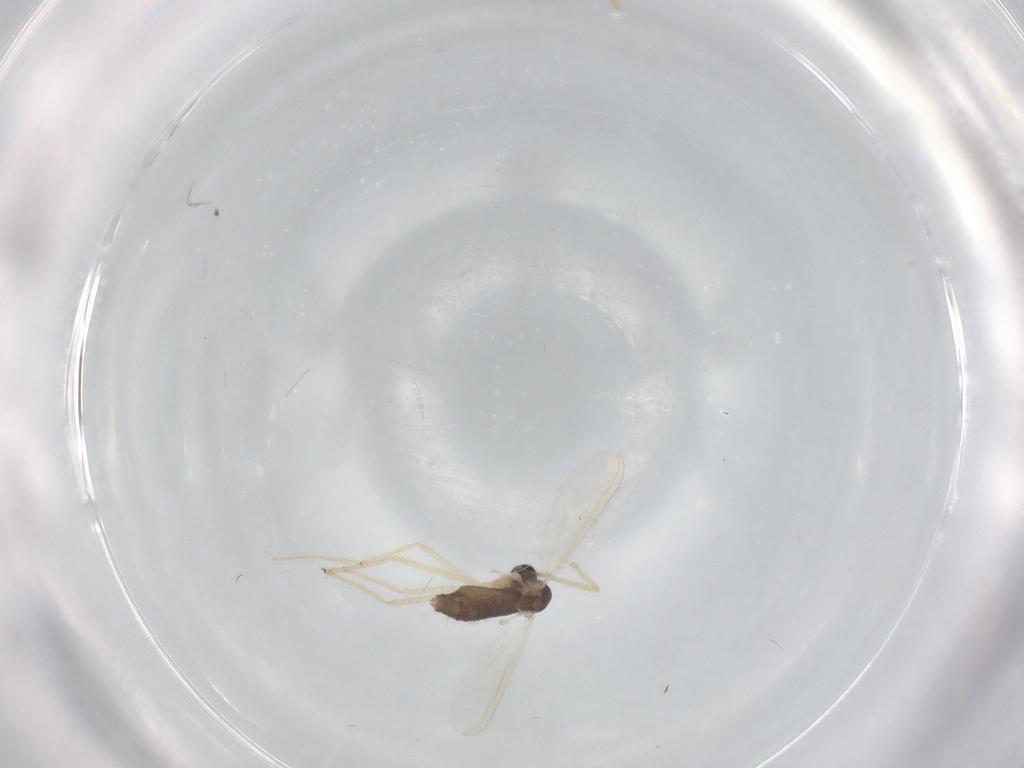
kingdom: Animalia
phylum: Arthropoda
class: Insecta
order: Diptera
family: Chironomidae
